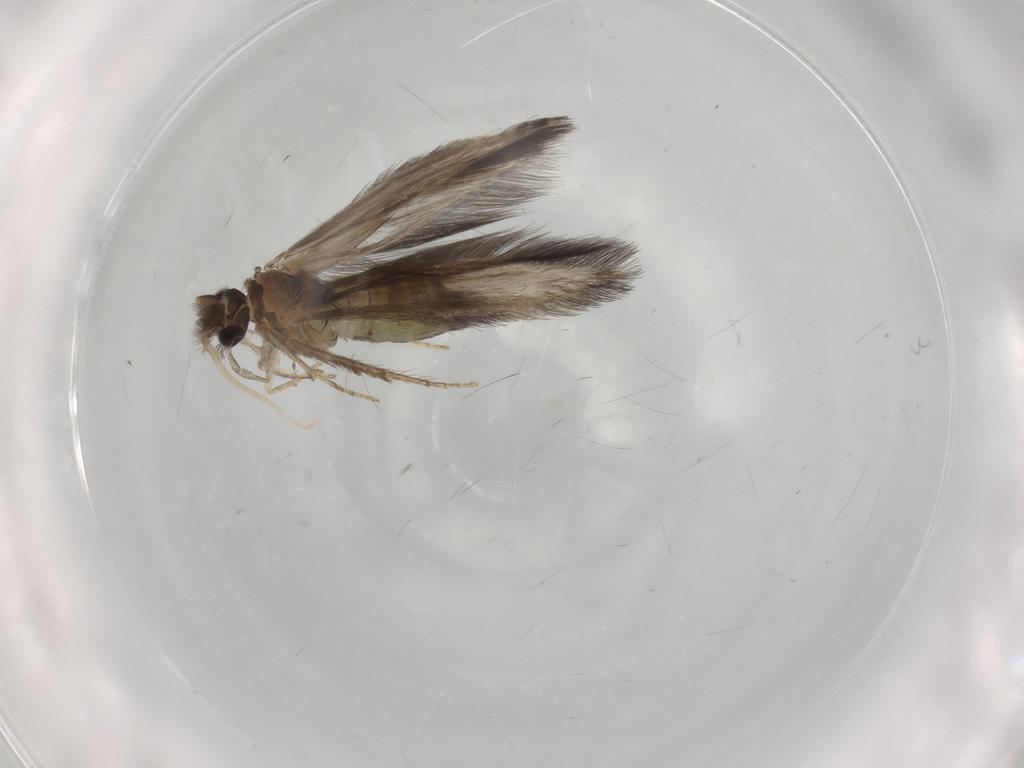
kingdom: Animalia
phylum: Arthropoda
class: Insecta
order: Trichoptera
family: Hydroptilidae
